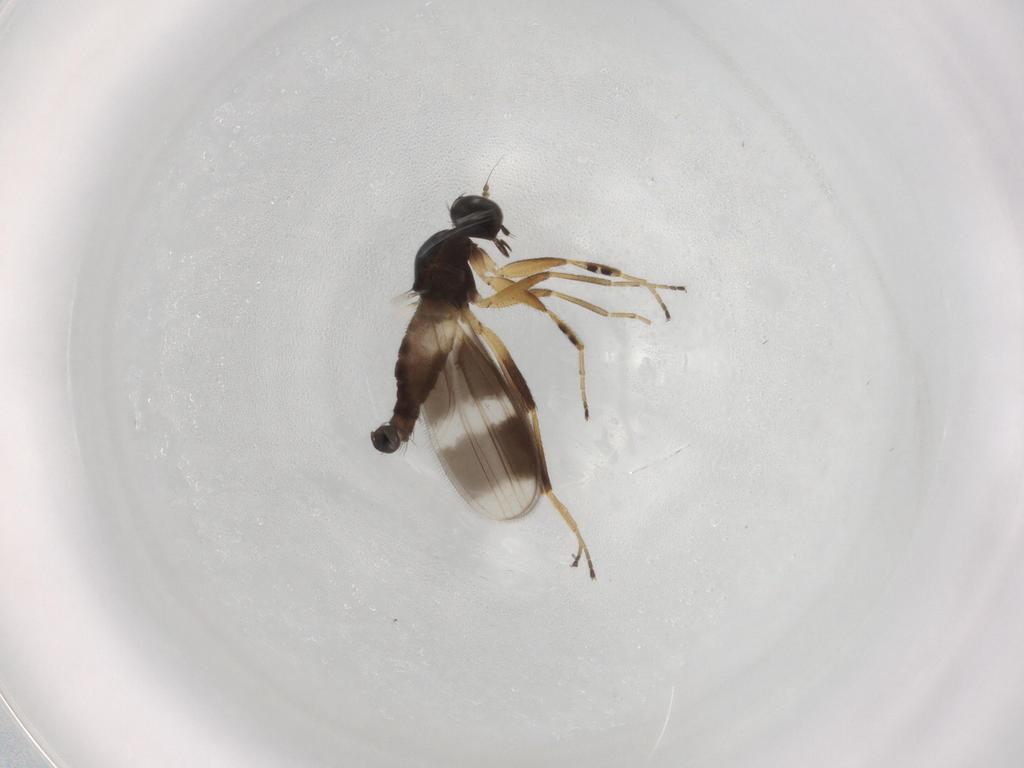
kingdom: Animalia
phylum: Arthropoda
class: Insecta
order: Diptera
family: Hybotidae
